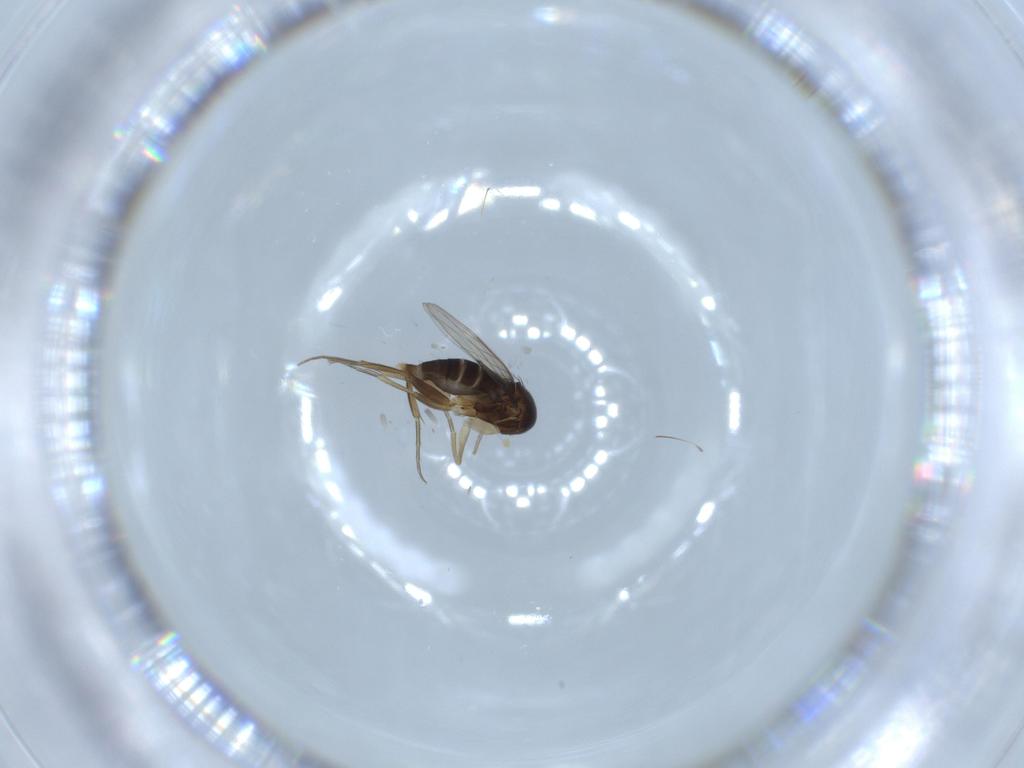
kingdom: Animalia
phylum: Arthropoda
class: Insecta
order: Diptera
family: Phoridae
